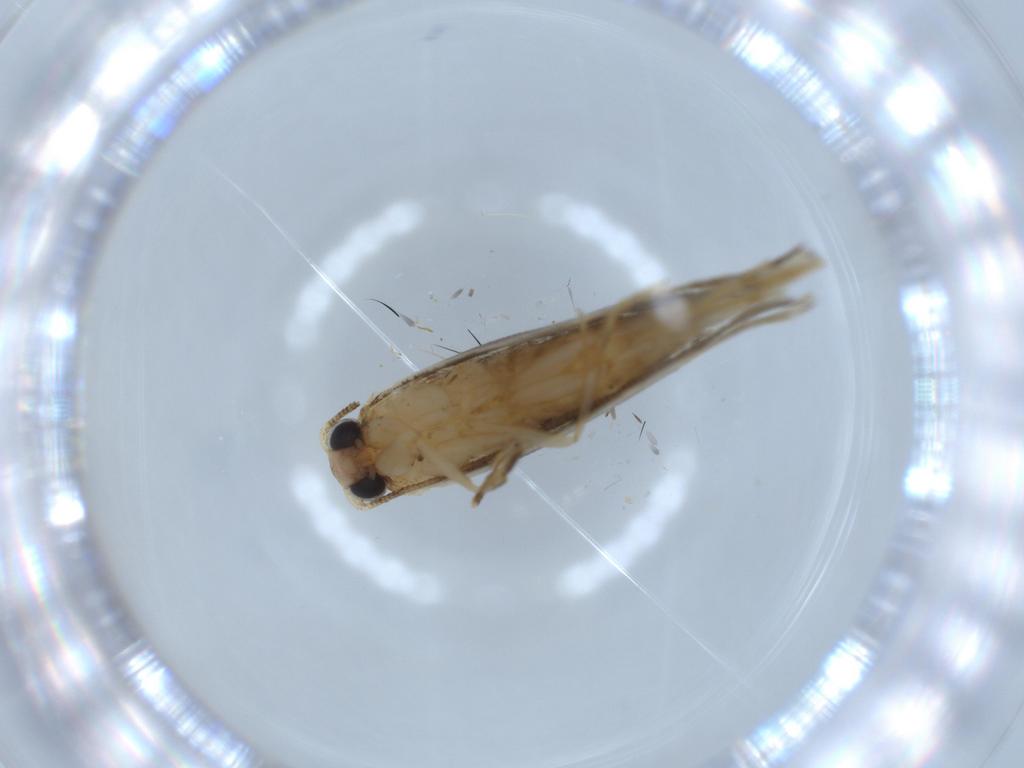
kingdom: Animalia
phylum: Arthropoda
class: Insecta
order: Lepidoptera
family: Tineidae
